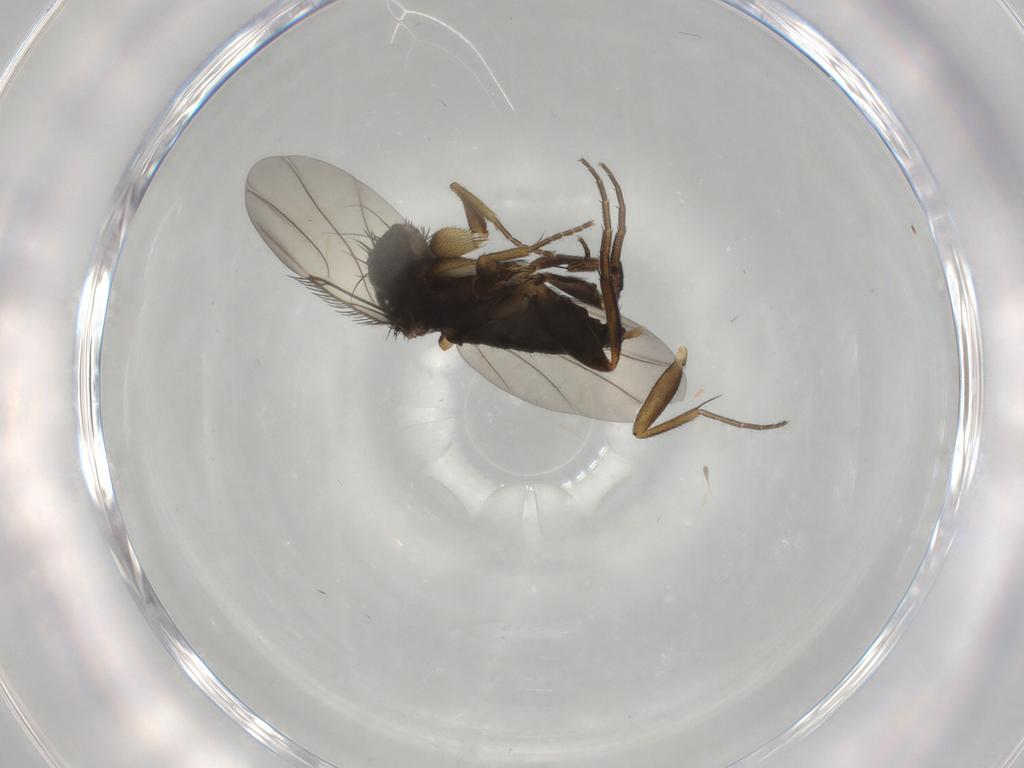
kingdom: Animalia
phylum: Arthropoda
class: Insecta
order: Diptera
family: Phoridae
